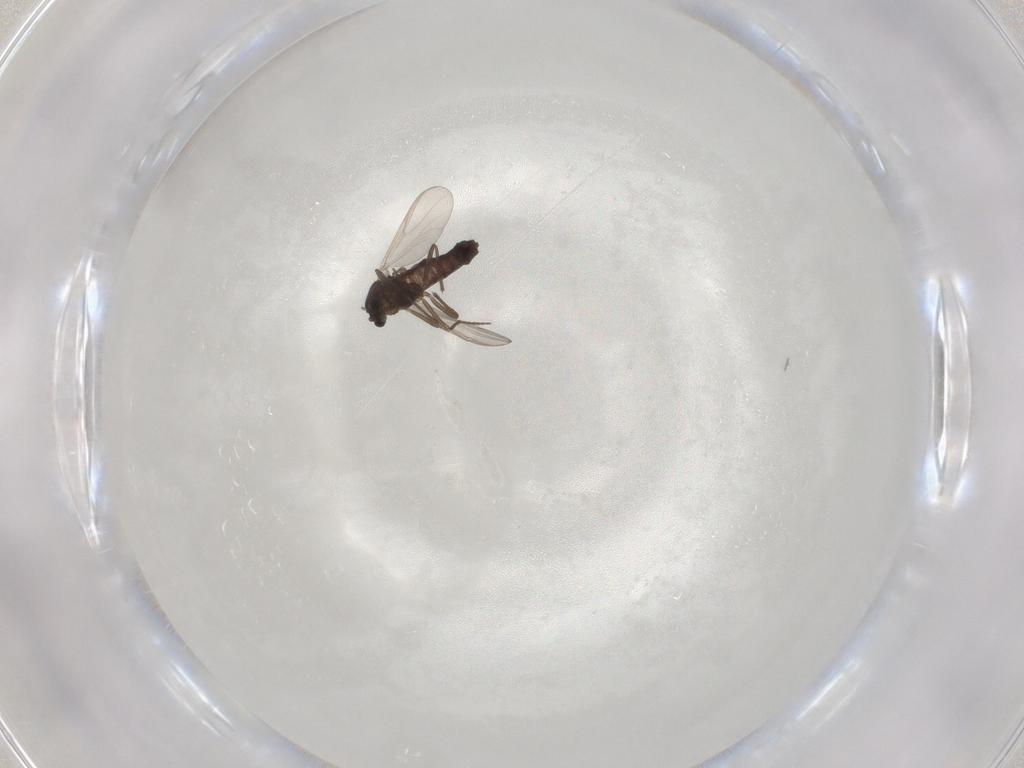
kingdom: Animalia
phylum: Arthropoda
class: Insecta
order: Diptera
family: Chironomidae
